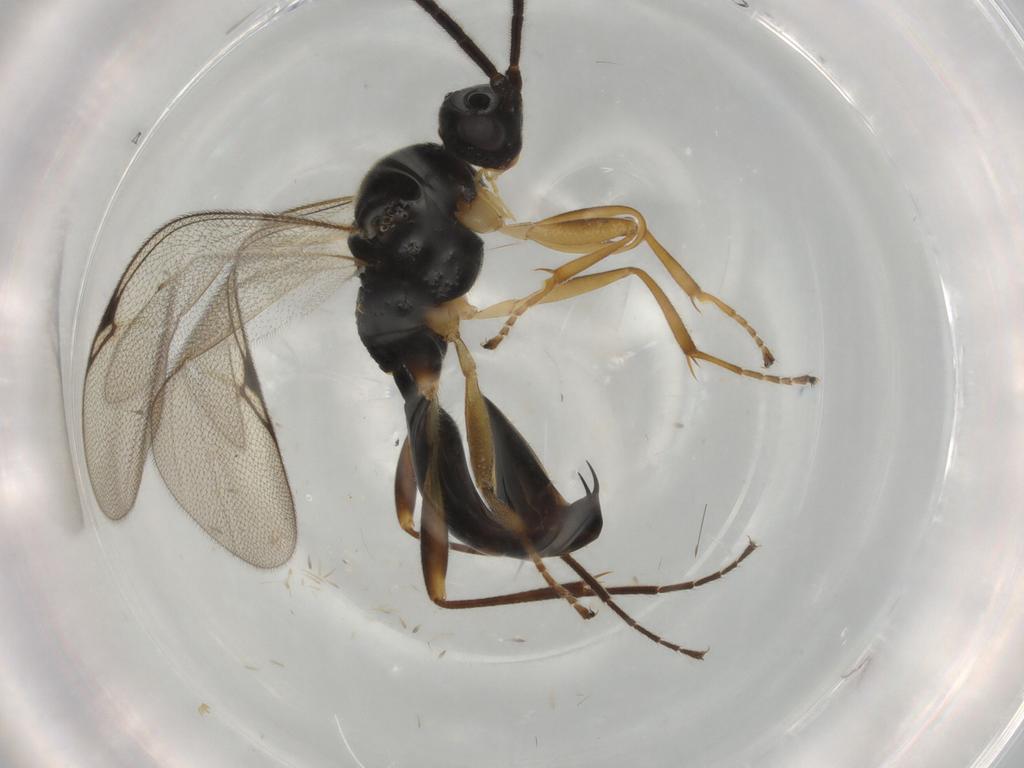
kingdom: Animalia
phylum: Arthropoda
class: Insecta
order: Hymenoptera
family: Proctotrupidae
